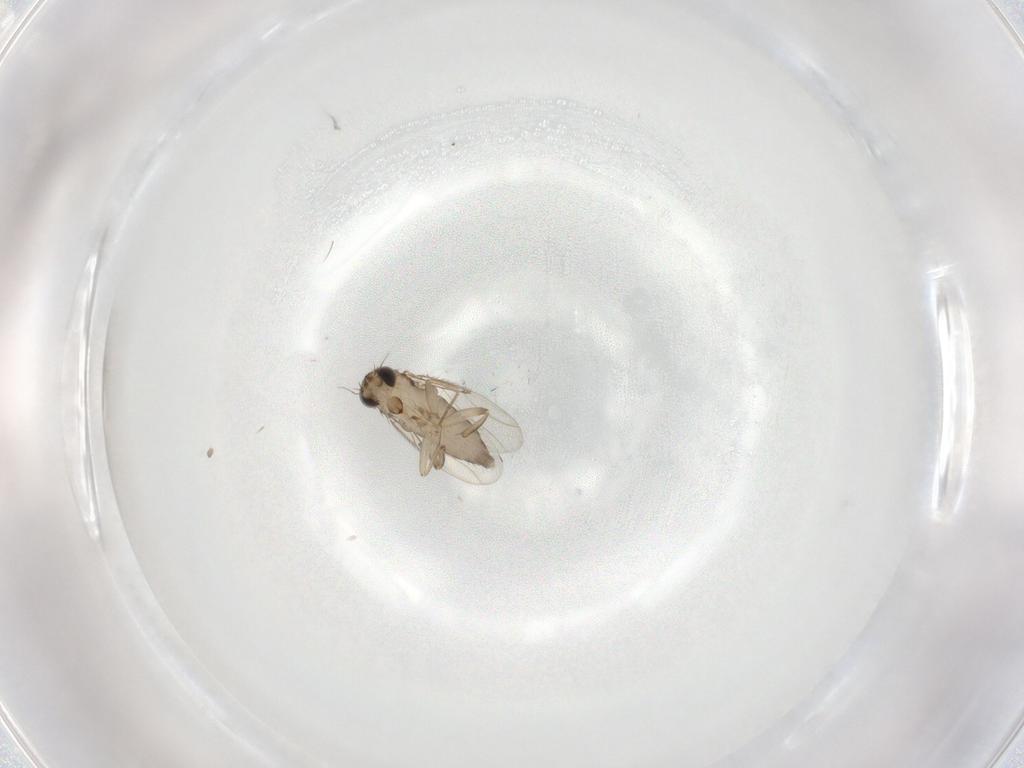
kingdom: Animalia
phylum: Arthropoda
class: Insecta
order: Diptera
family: Phoridae
